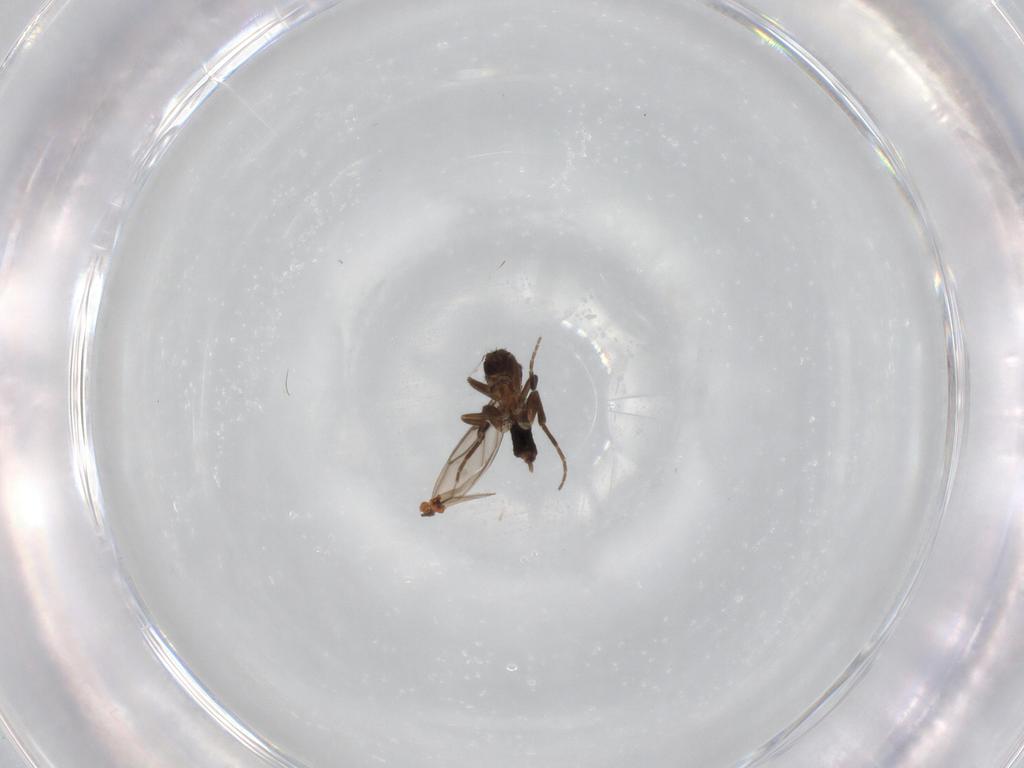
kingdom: Animalia
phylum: Arthropoda
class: Insecta
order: Diptera
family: Phoridae
